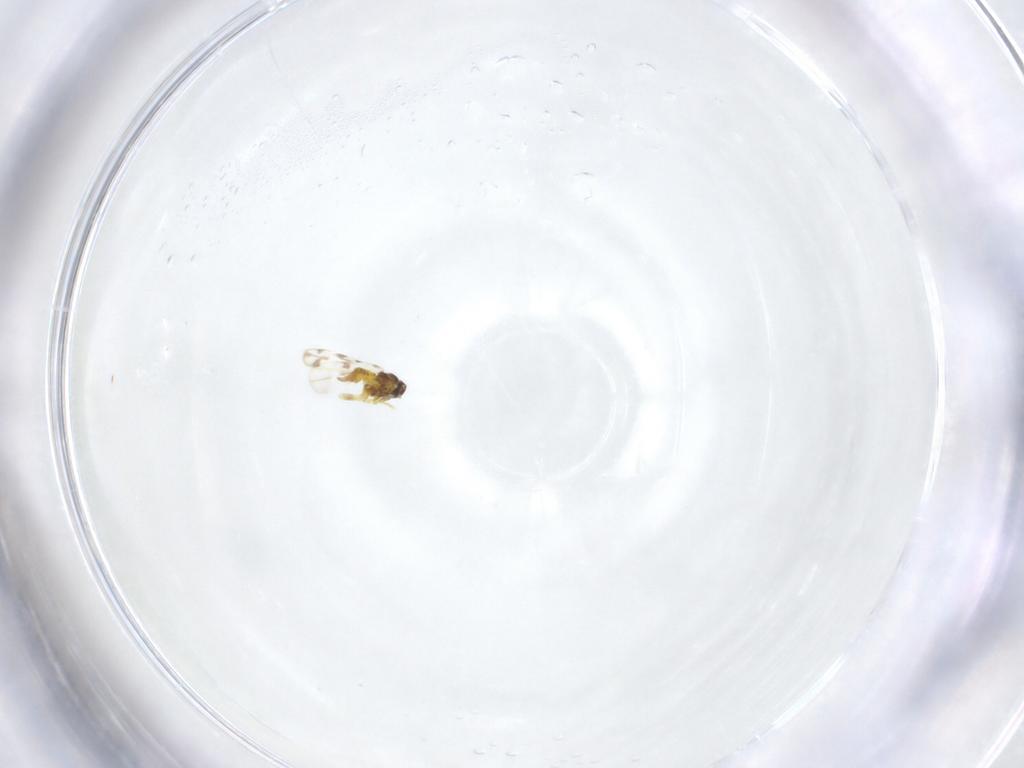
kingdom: Animalia
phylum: Arthropoda
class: Insecta
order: Hemiptera
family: Aleyrodidae
